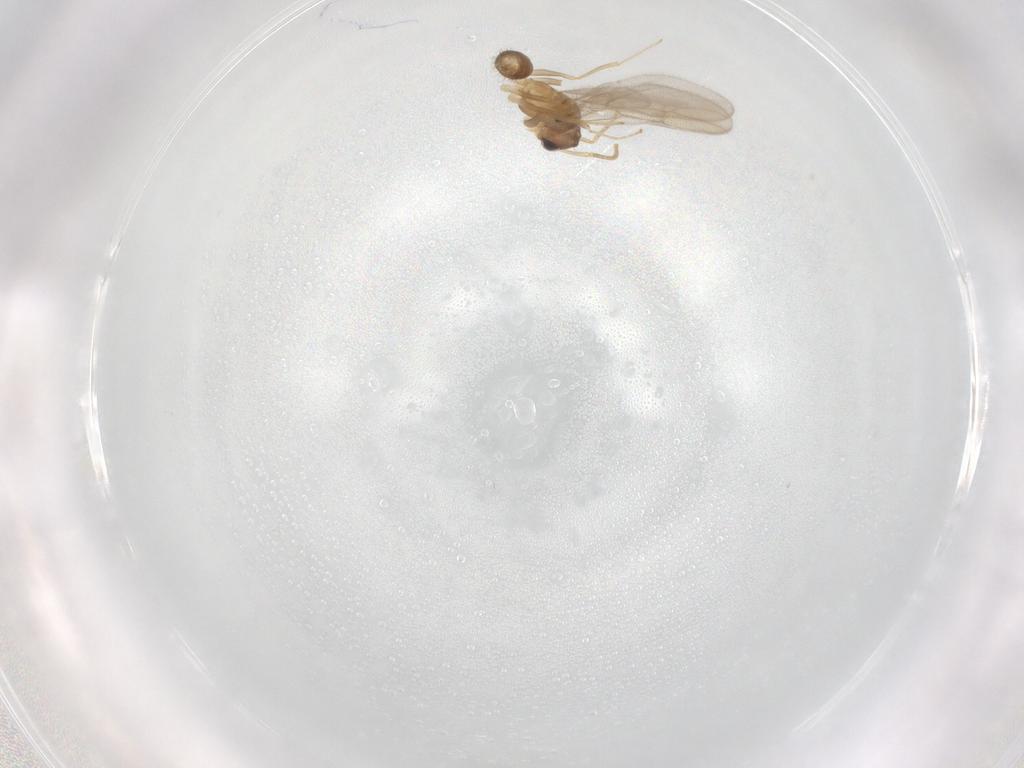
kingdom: Animalia
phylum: Arthropoda
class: Insecta
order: Hymenoptera
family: Formicidae
